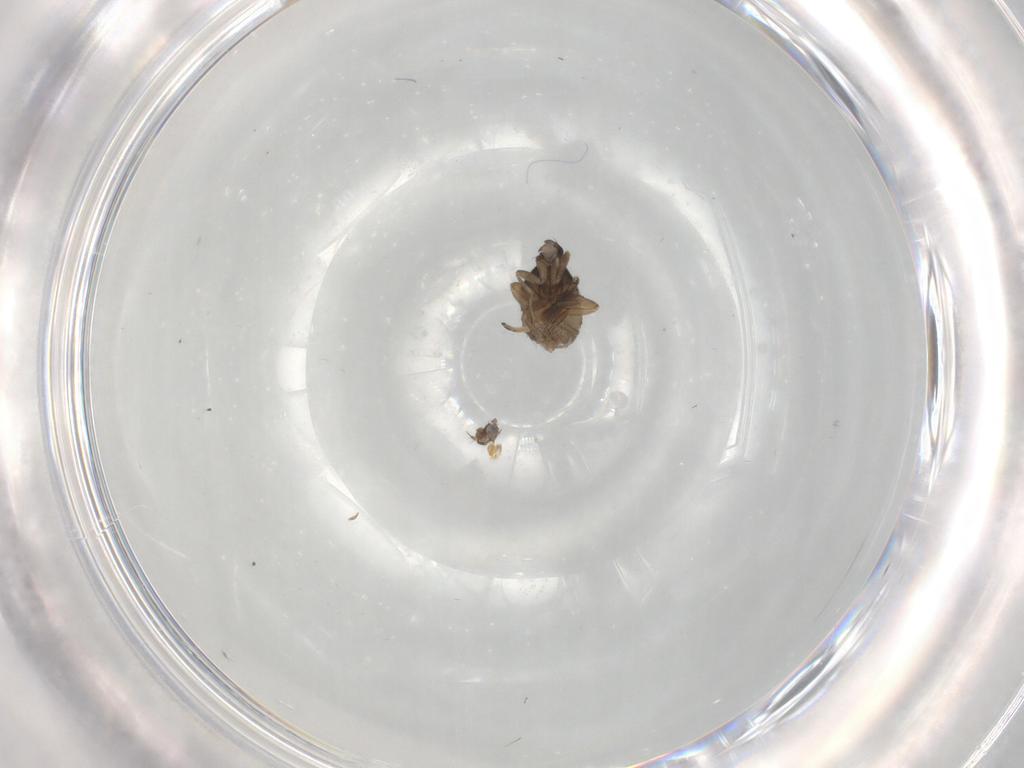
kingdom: Animalia
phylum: Arthropoda
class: Insecta
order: Diptera
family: Phoridae
